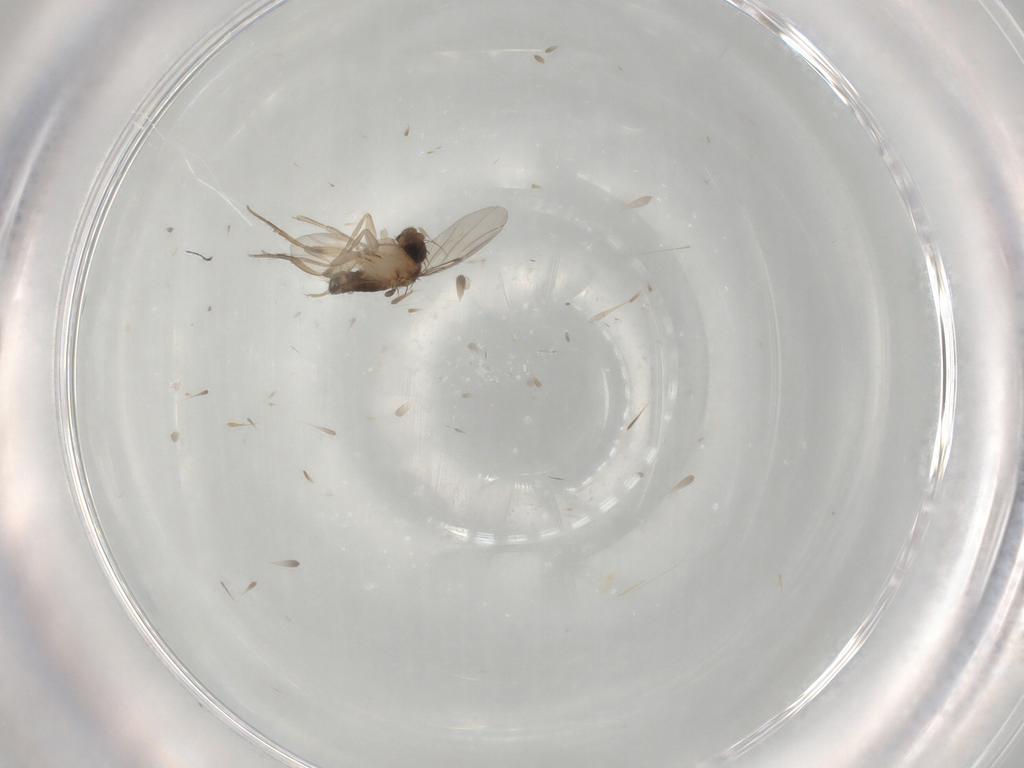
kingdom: Animalia
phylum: Arthropoda
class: Insecta
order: Diptera
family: Phoridae
